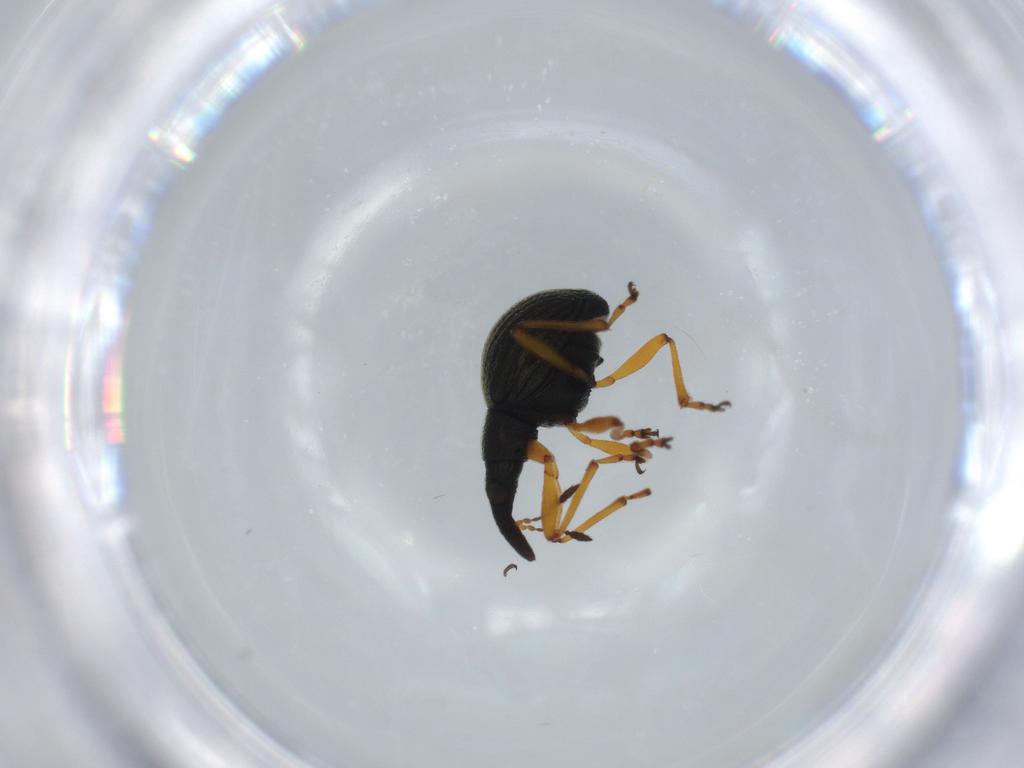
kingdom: Animalia
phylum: Arthropoda
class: Insecta
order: Coleoptera
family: Brentidae
